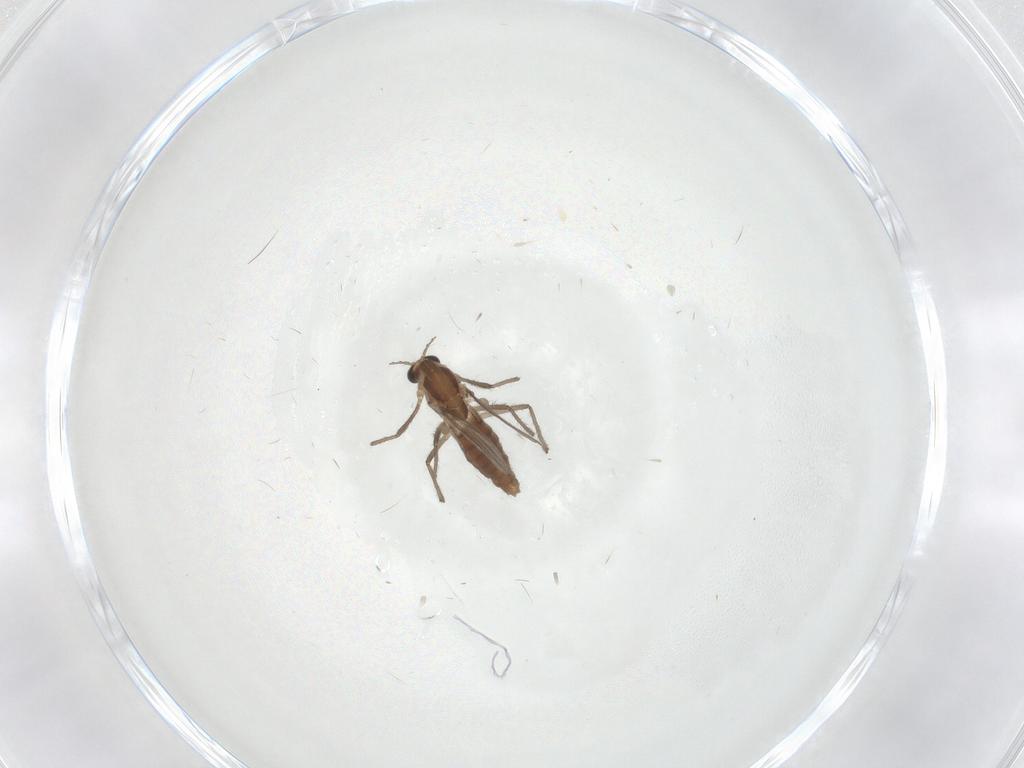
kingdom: Animalia
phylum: Arthropoda
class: Insecta
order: Diptera
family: Chironomidae
